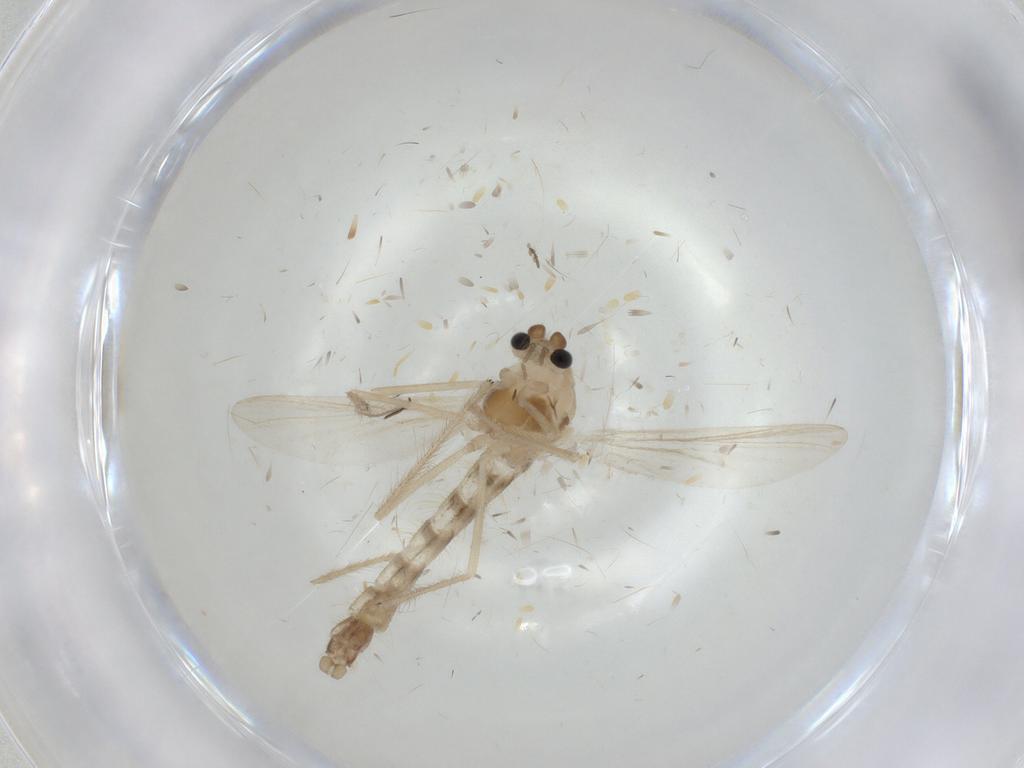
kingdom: Animalia
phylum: Arthropoda
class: Insecta
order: Diptera
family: Chironomidae
